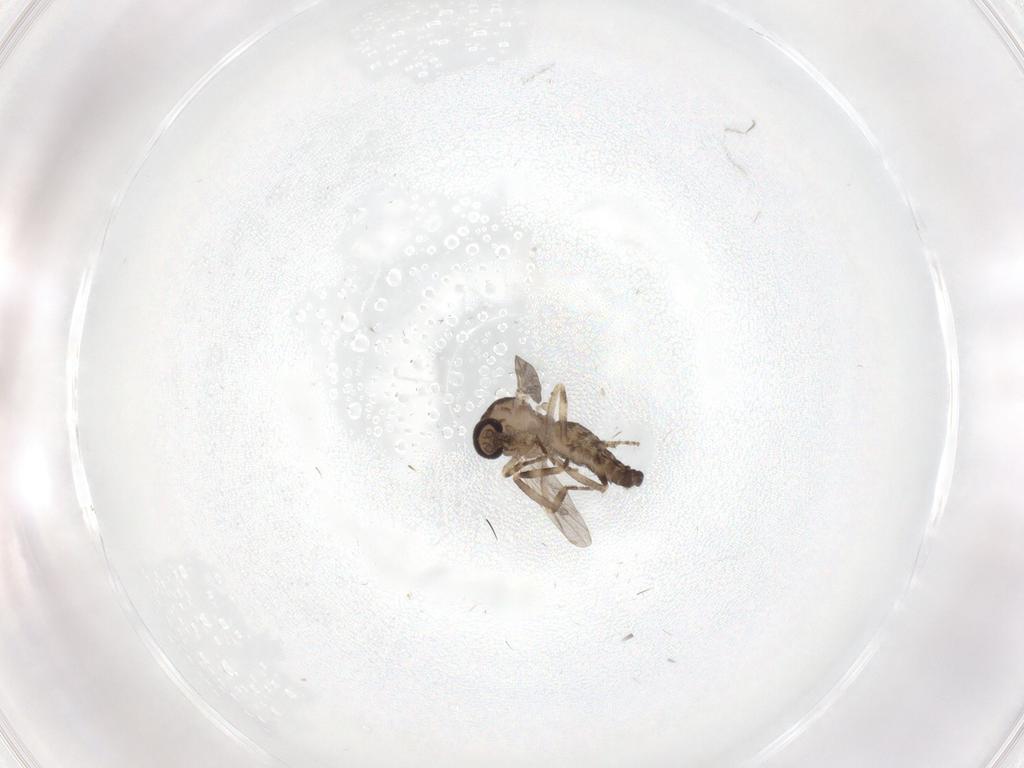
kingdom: Animalia
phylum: Arthropoda
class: Insecta
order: Diptera
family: Ceratopogonidae
